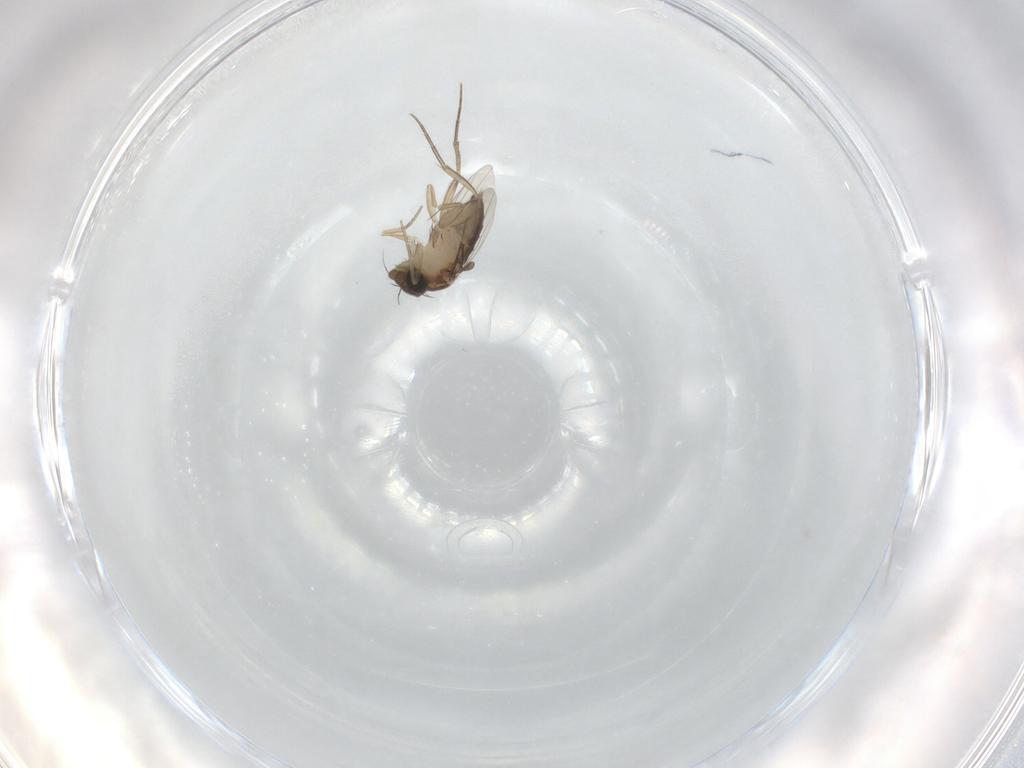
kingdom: Animalia
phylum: Arthropoda
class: Insecta
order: Diptera
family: Phoridae
